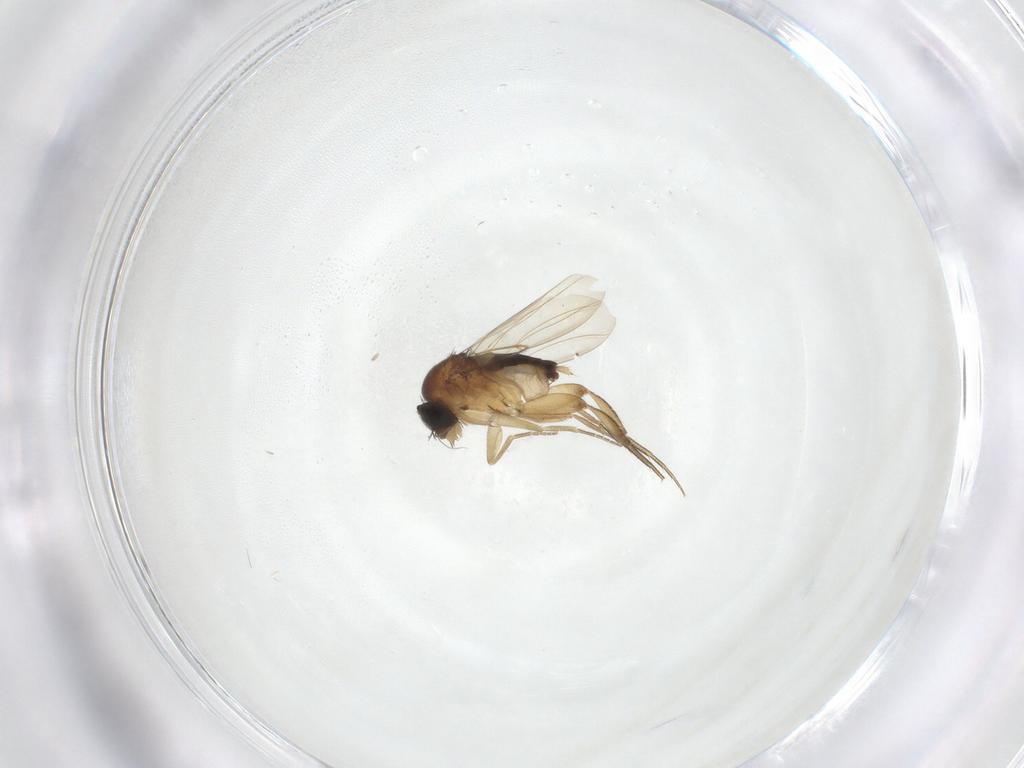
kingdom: Animalia
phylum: Arthropoda
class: Insecta
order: Diptera
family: Phoridae
